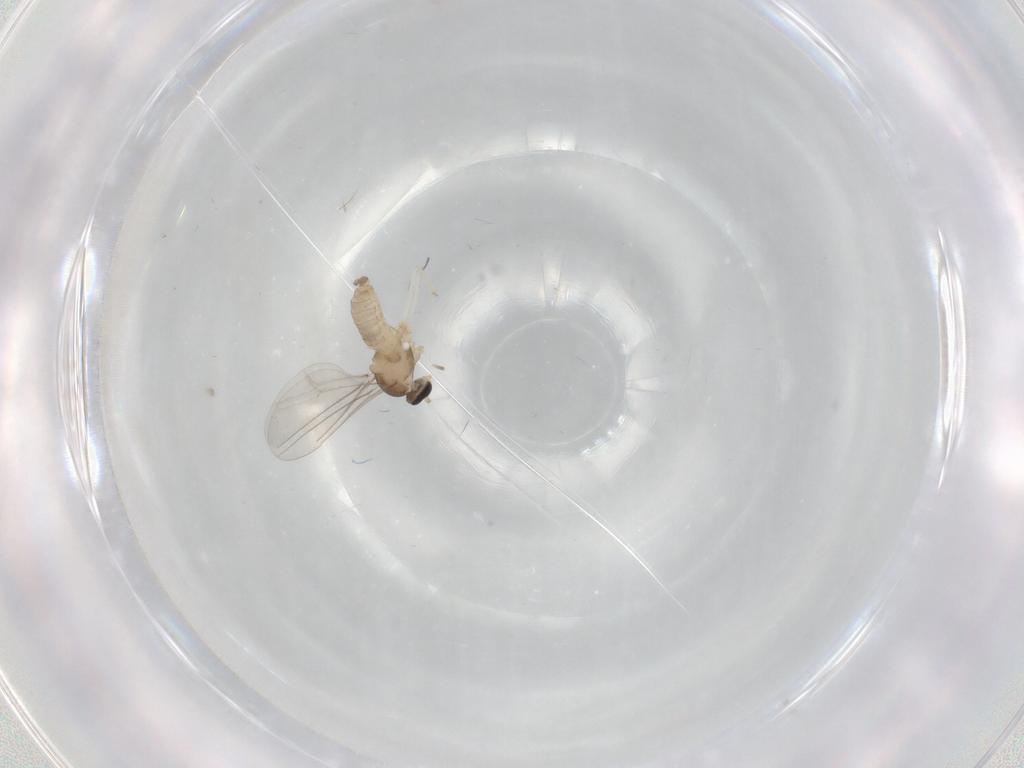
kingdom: Animalia
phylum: Arthropoda
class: Insecta
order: Diptera
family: Cecidomyiidae
